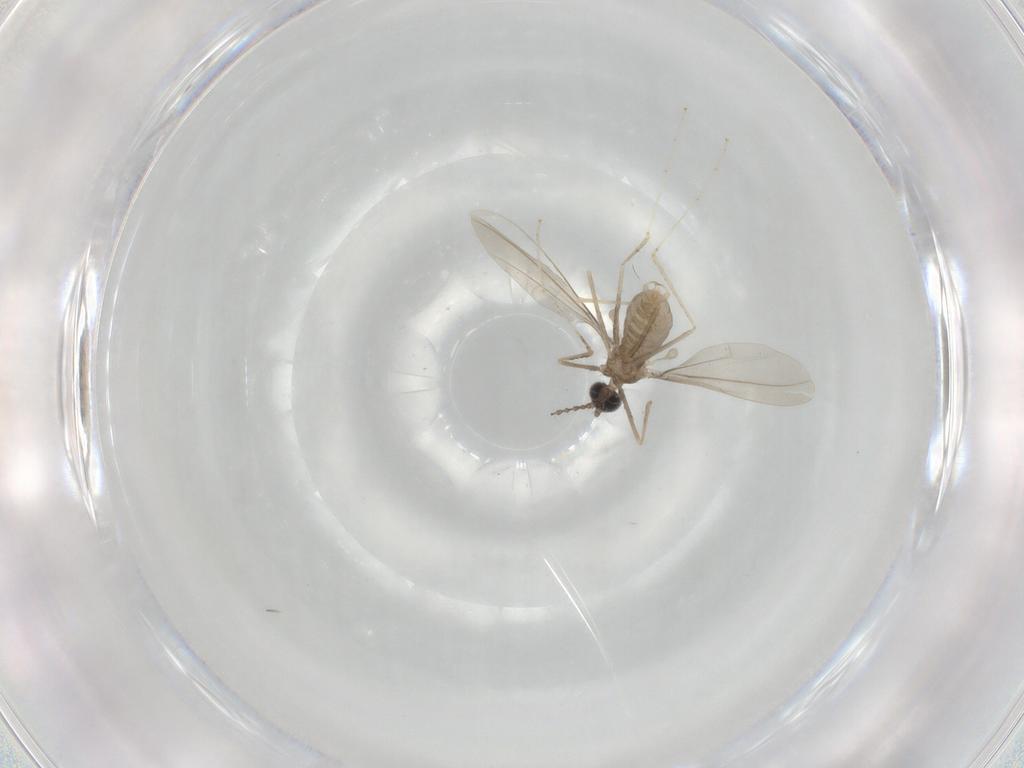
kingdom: Animalia
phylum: Arthropoda
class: Insecta
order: Diptera
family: Cecidomyiidae
